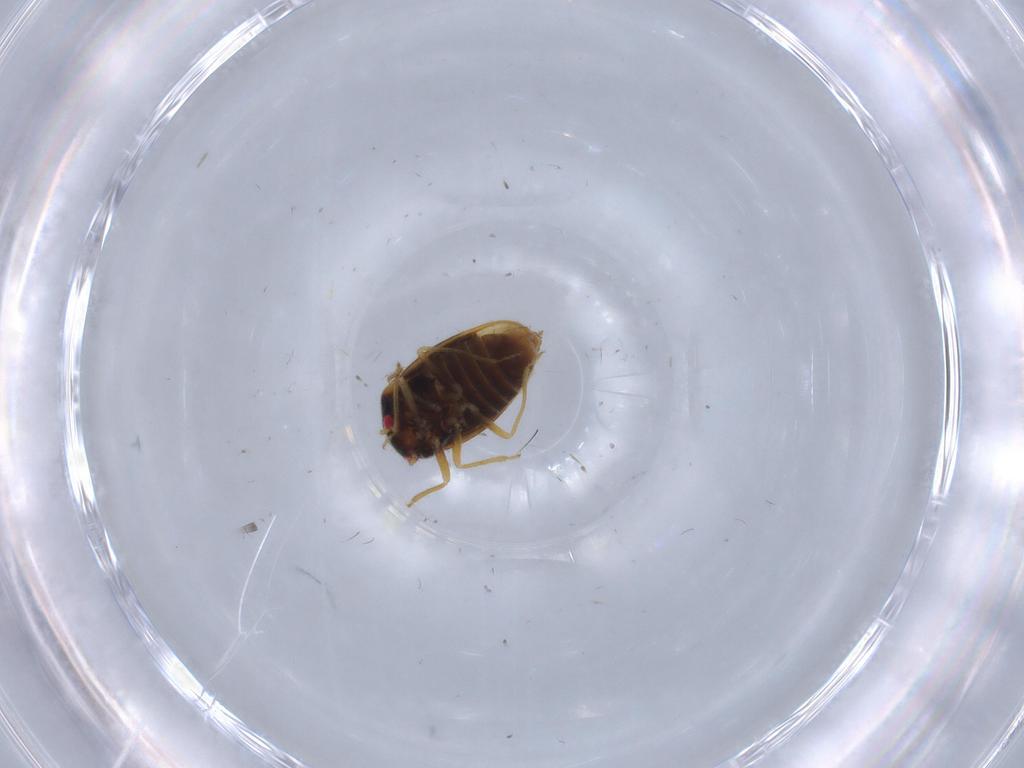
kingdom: Animalia
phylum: Arthropoda
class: Insecta
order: Hemiptera
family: Schizopteridae
